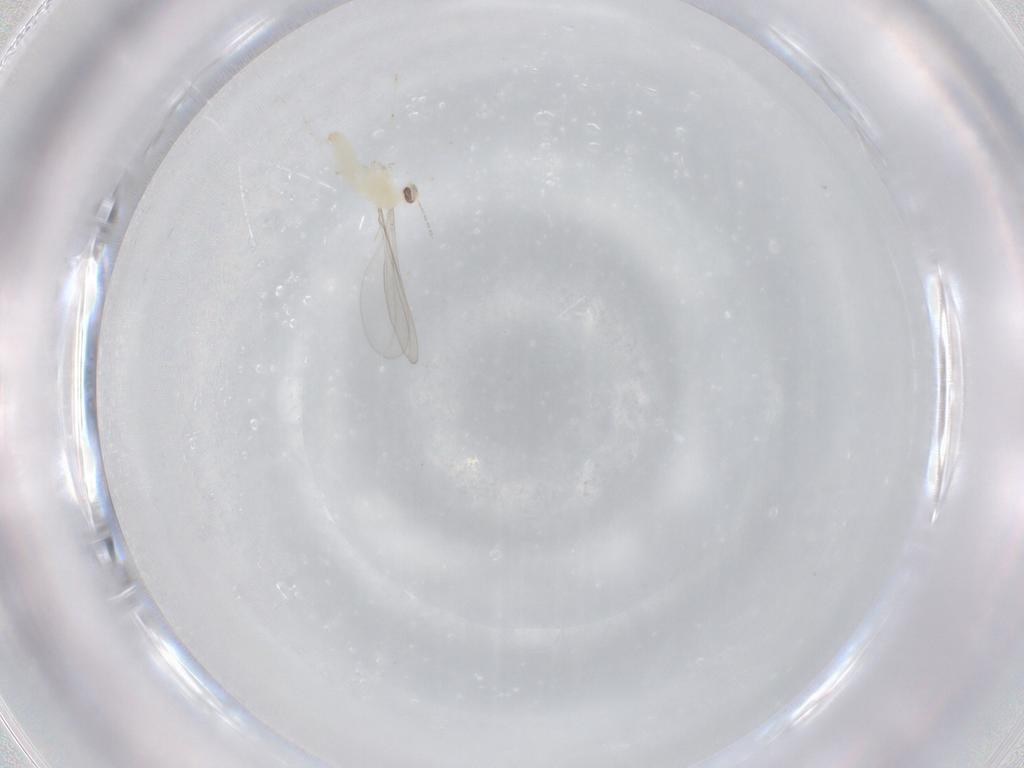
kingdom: Animalia
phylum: Arthropoda
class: Insecta
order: Diptera
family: Cecidomyiidae
